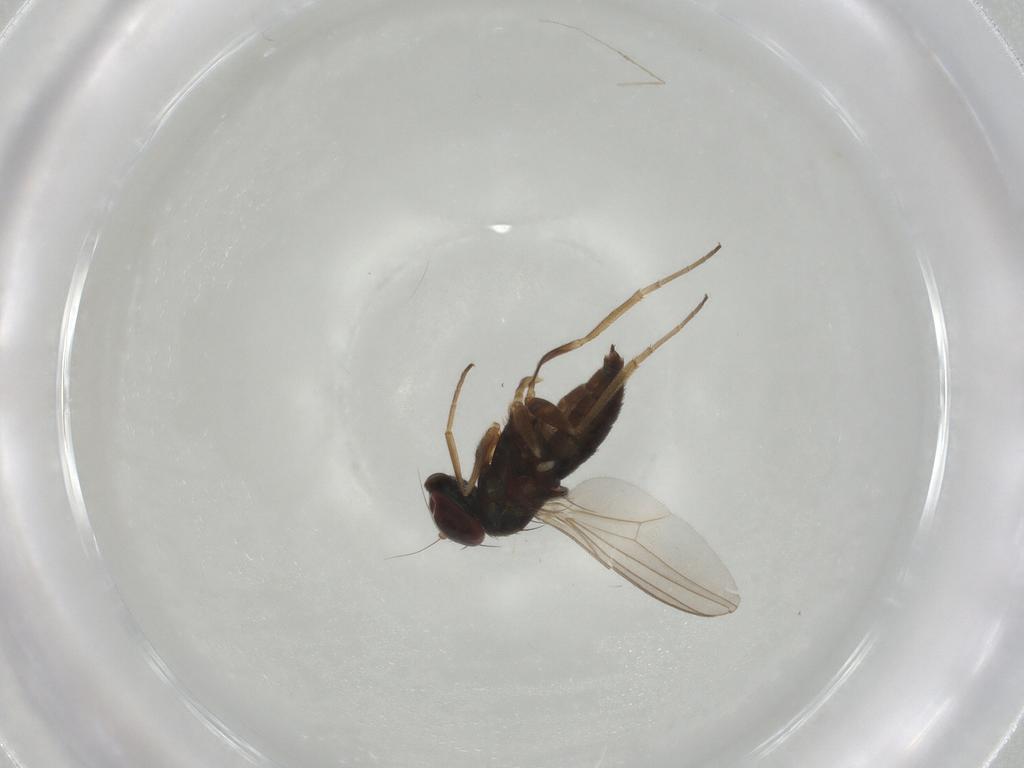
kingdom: Animalia
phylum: Arthropoda
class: Insecta
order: Diptera
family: Dolichopodidae
